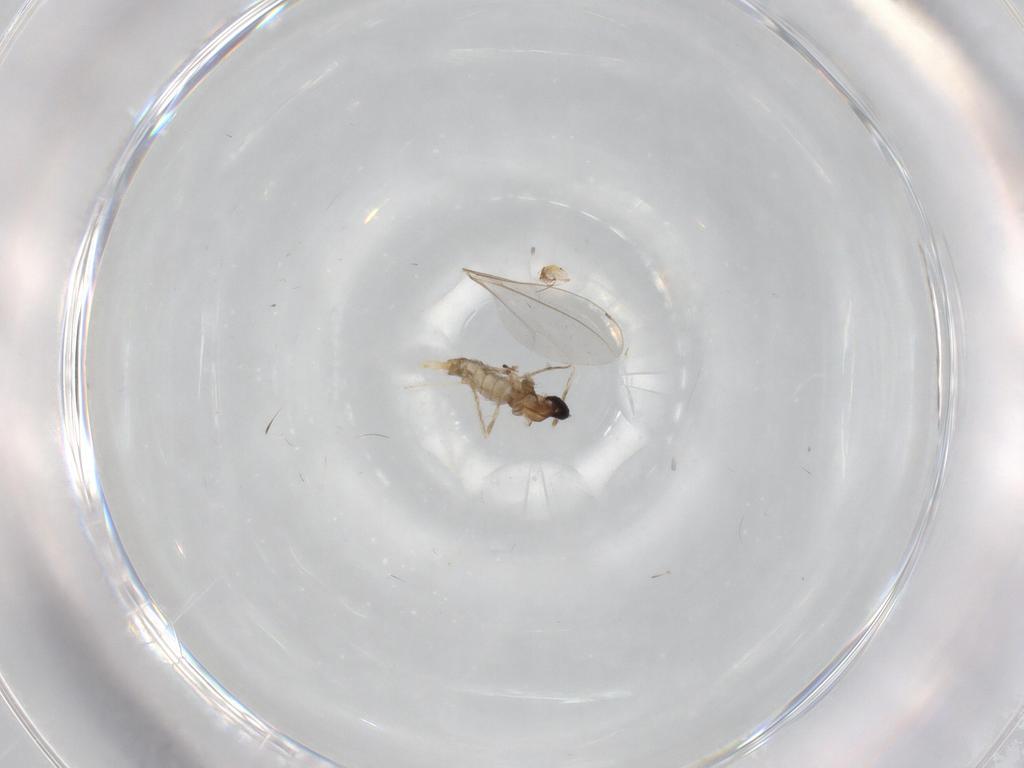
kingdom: Animalia
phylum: Arthropoda
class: Insecta
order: Diptera
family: Cecidomyiidae
